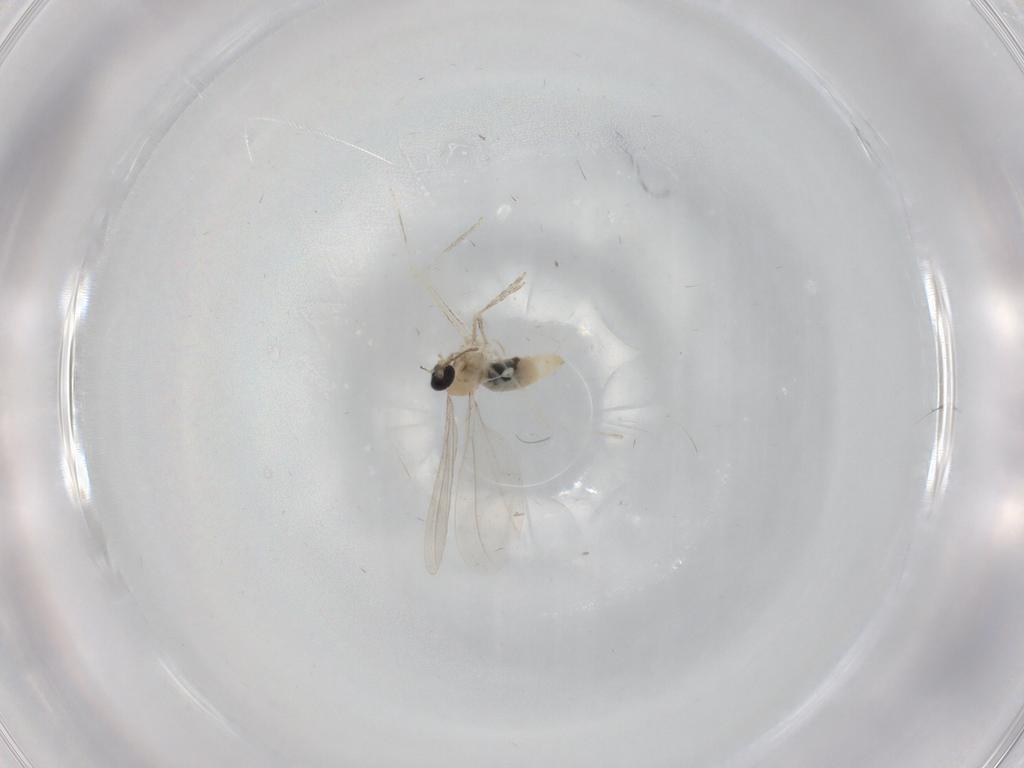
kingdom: Animalia
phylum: Arthropoda
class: Insecta
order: Diptera
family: Cecidomyiidae
